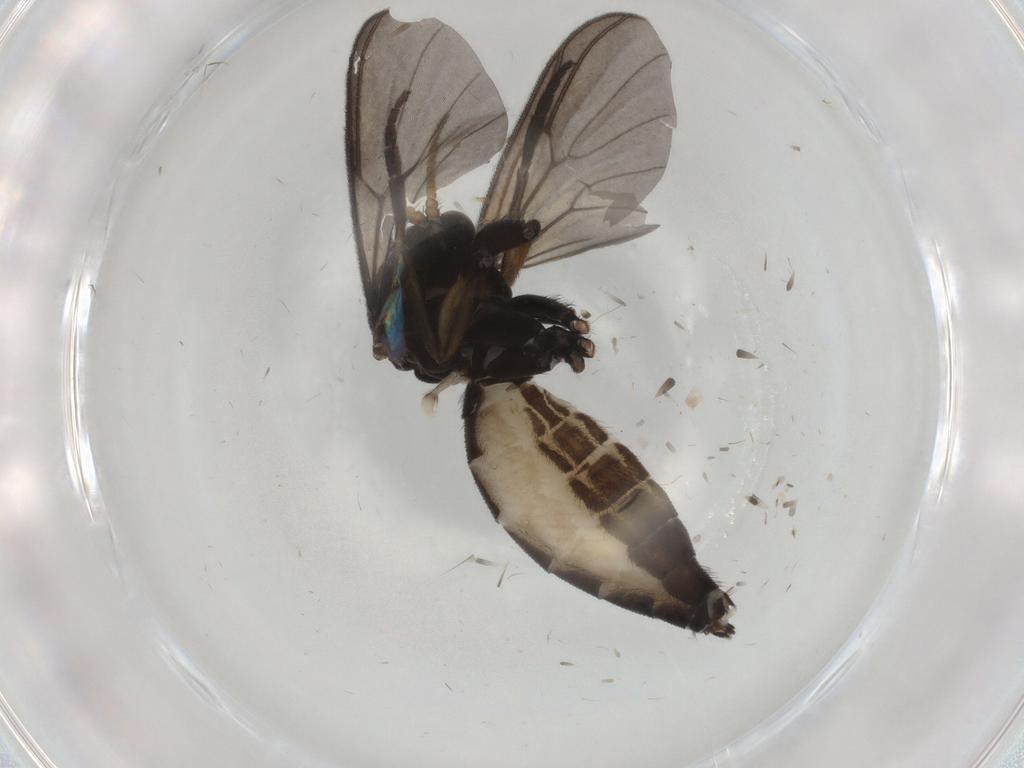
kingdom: Animalia
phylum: Arthropoda
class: Insecta
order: Diptera
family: Mycetophilidae
